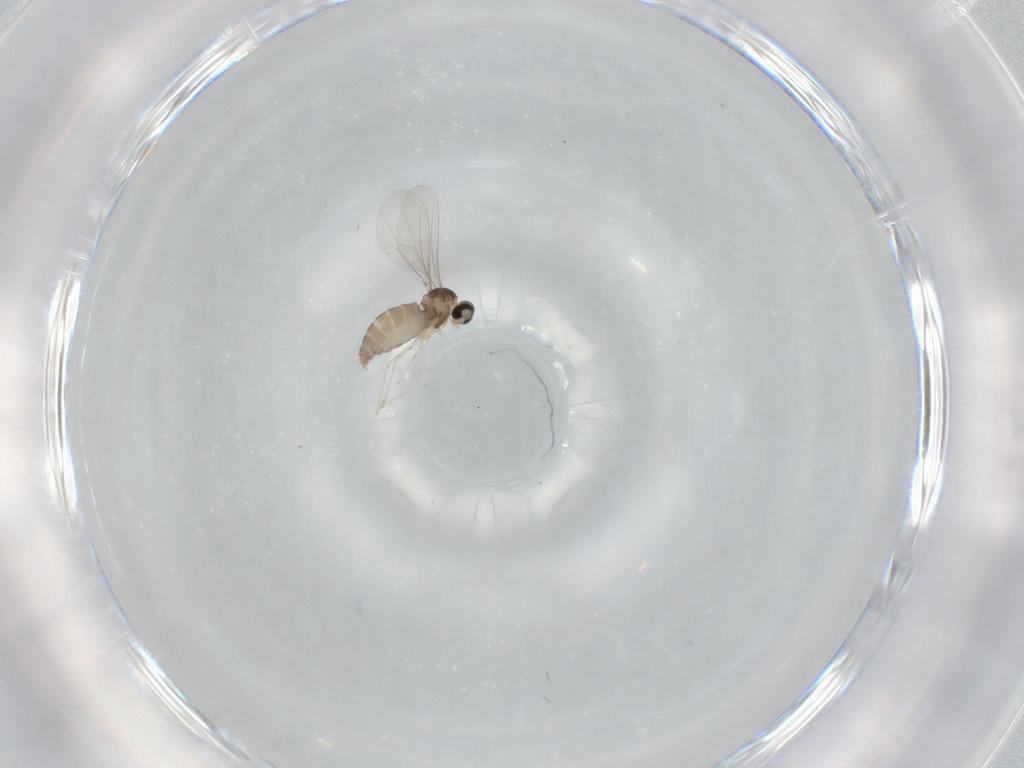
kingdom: Animalia
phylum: Arthropoda
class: Insecta
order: Diptera
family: Cecidomyiidae
